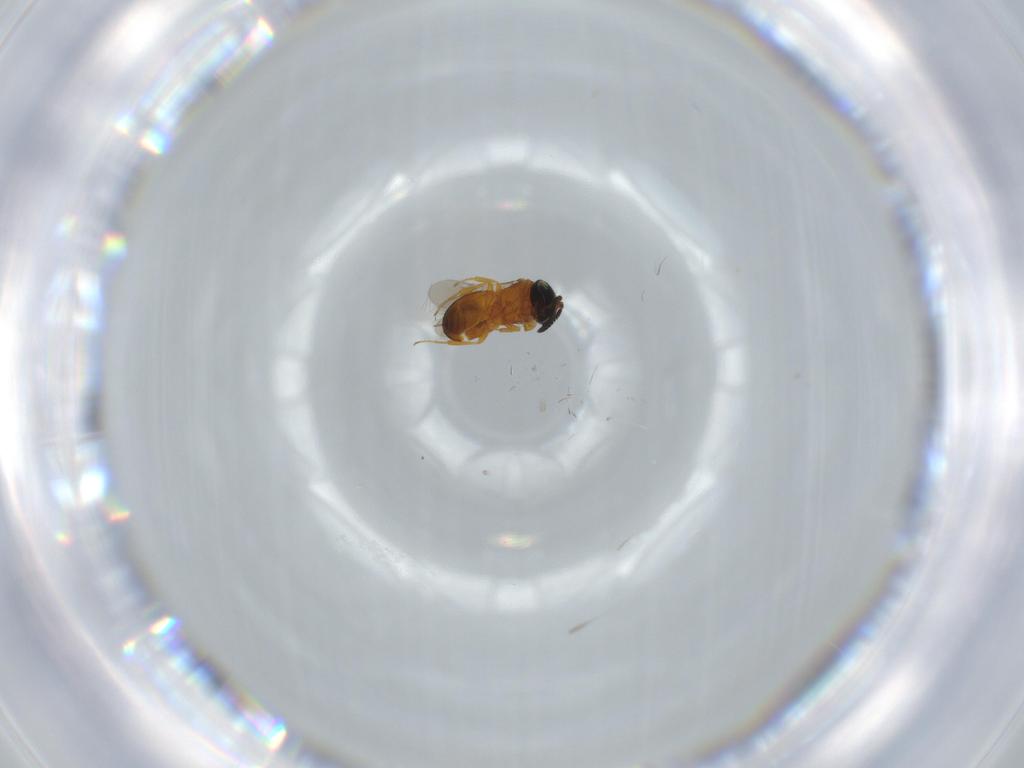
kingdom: Animalia
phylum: Arthropoda
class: Insecta
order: Hymenoptera
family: Scelionidae
